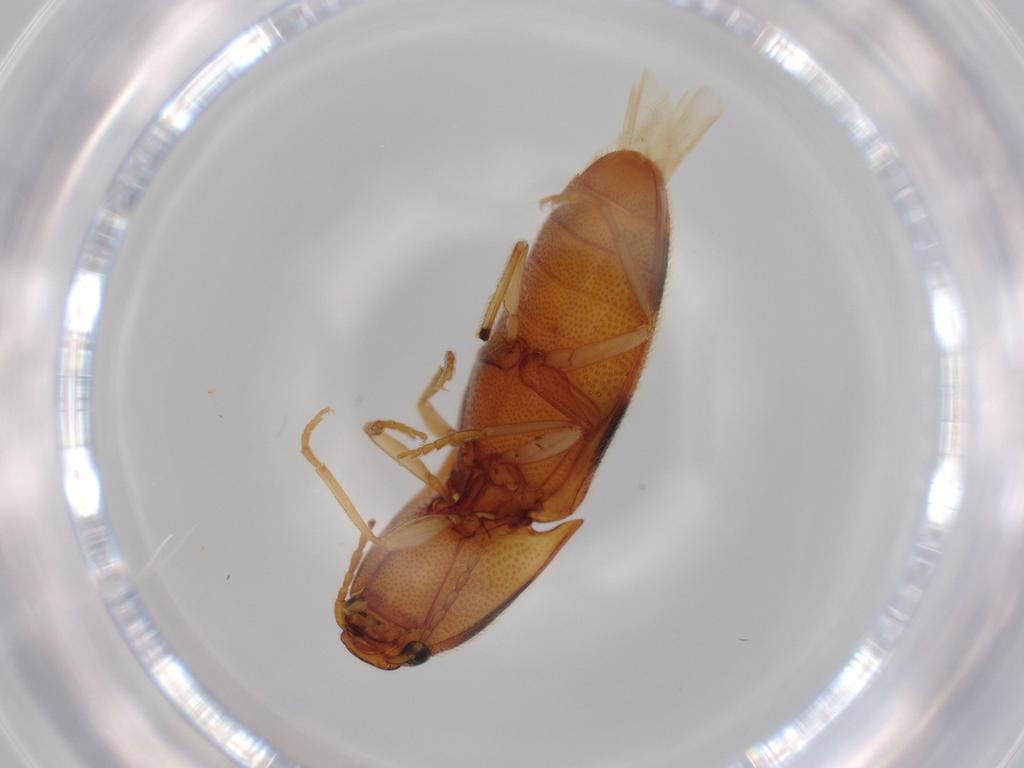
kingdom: Animalia
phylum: Arthropoda
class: Insecta
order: Coleoptera
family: Elateridae
